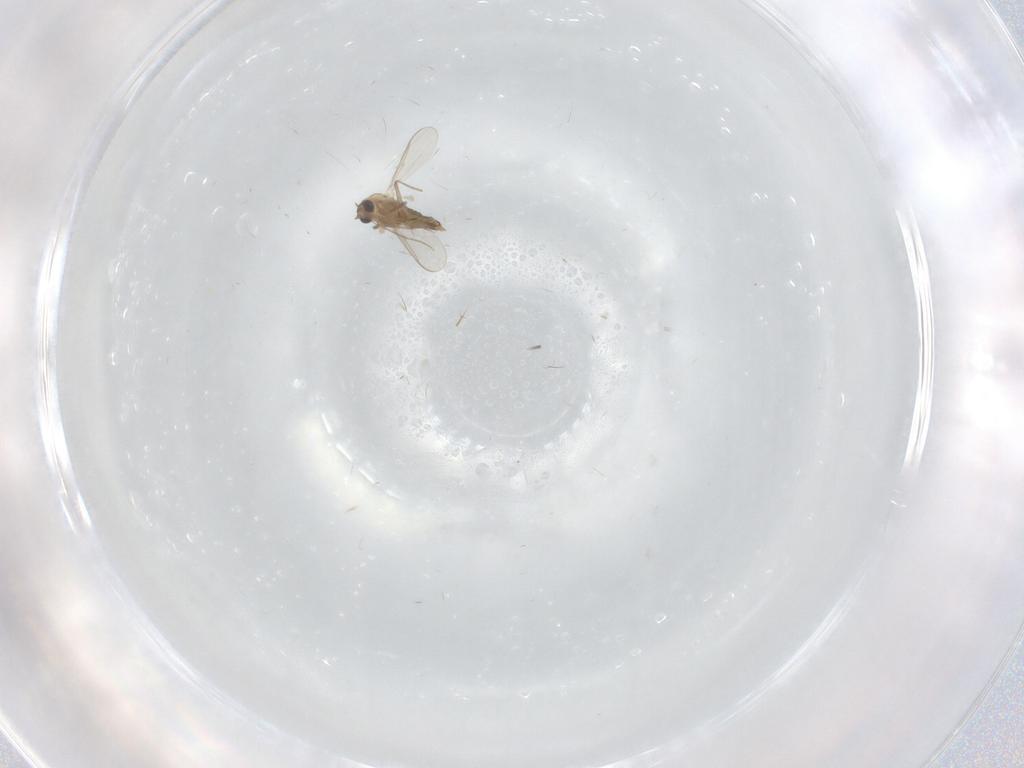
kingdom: Animalia
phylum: Arthropoda
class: Insecta
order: Diptera
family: Chironomidae
